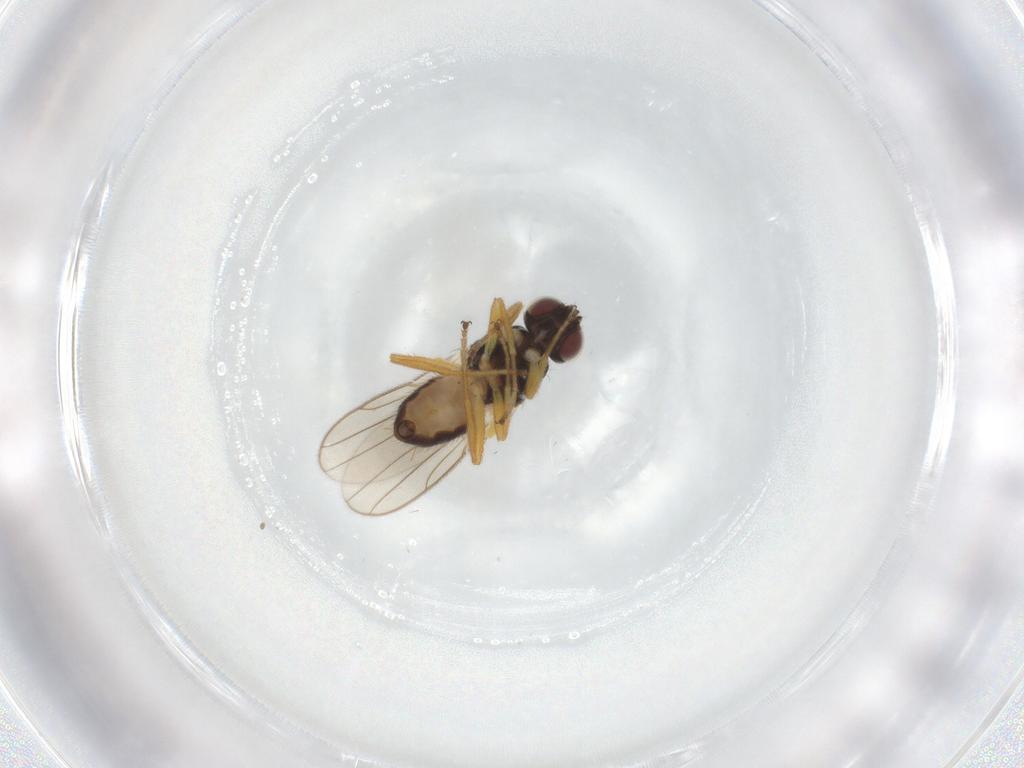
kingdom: Animalia
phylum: Arthropoda
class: Insecta
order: Diptera
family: Chloropidae
